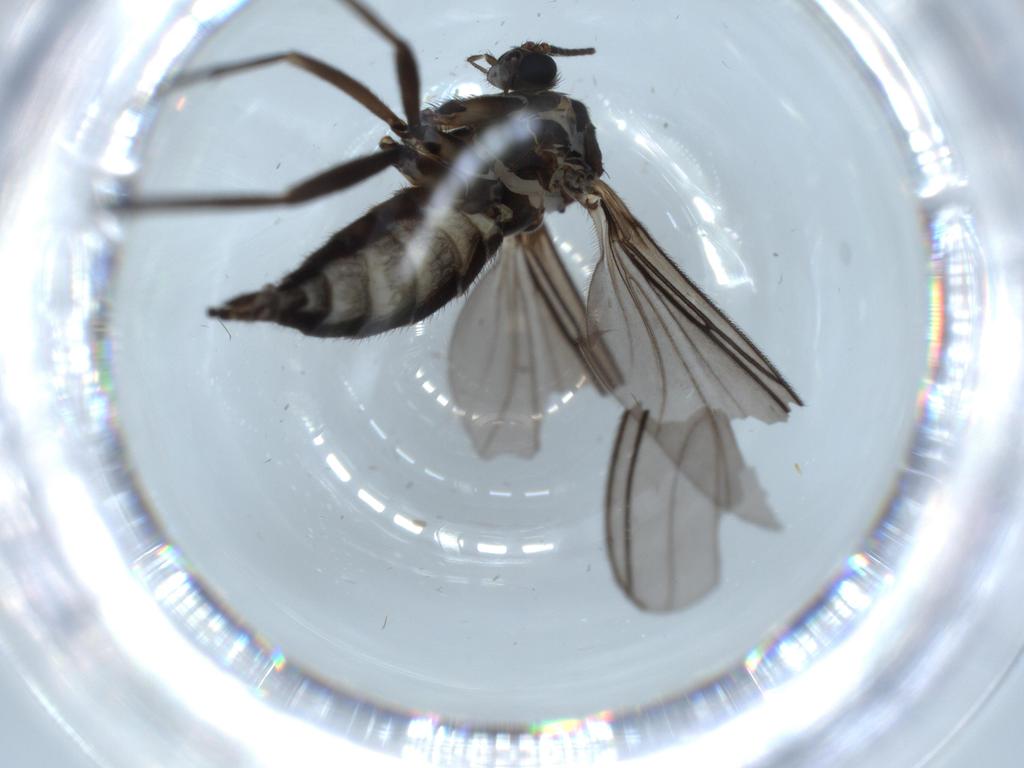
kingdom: Animalia
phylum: Arthropoda
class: Insecta
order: Diptera
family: Sciaridae
